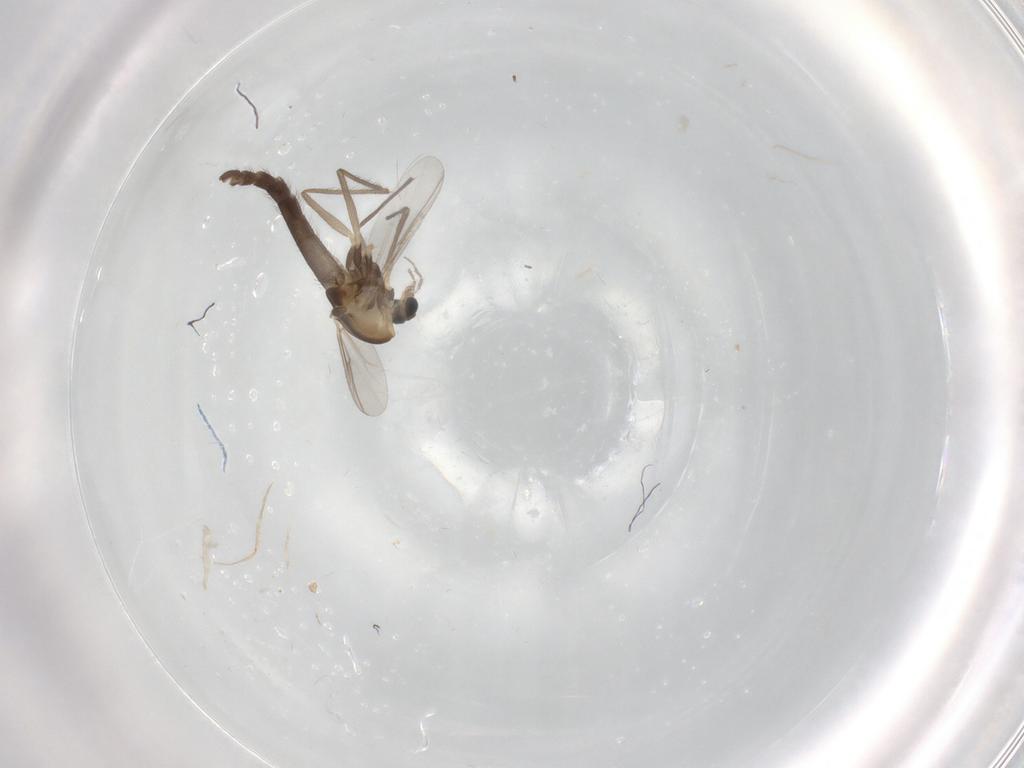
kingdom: Animalia
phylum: Arthropoda
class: Insecta
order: Diptera
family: Chironomidae
